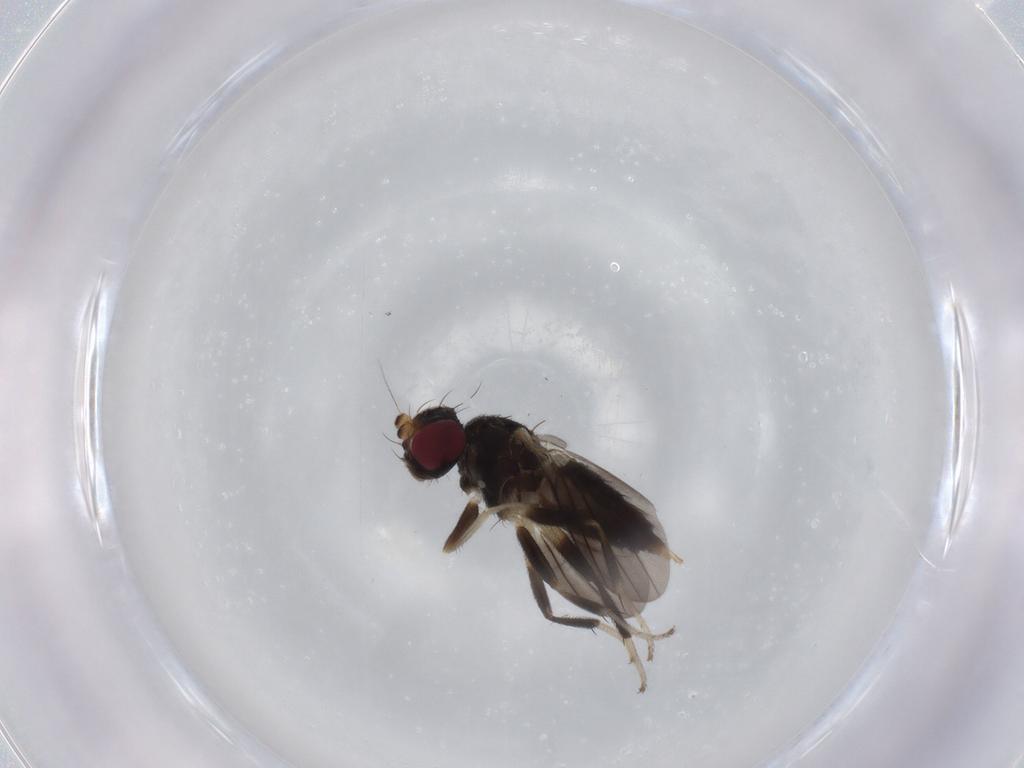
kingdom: Animalia
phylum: Arthropoda
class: Insecta
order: Diptera
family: Clusiidae
